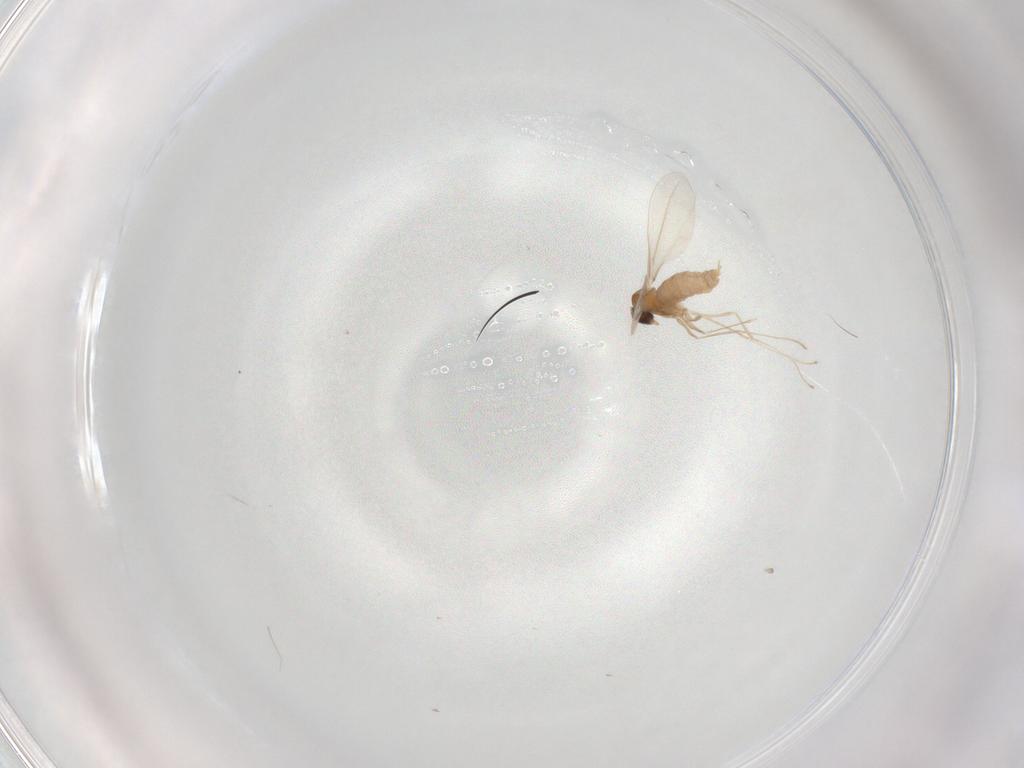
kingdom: Animalia
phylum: Arthropoda
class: Insecta
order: Diptera
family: Cecidomyiidae
